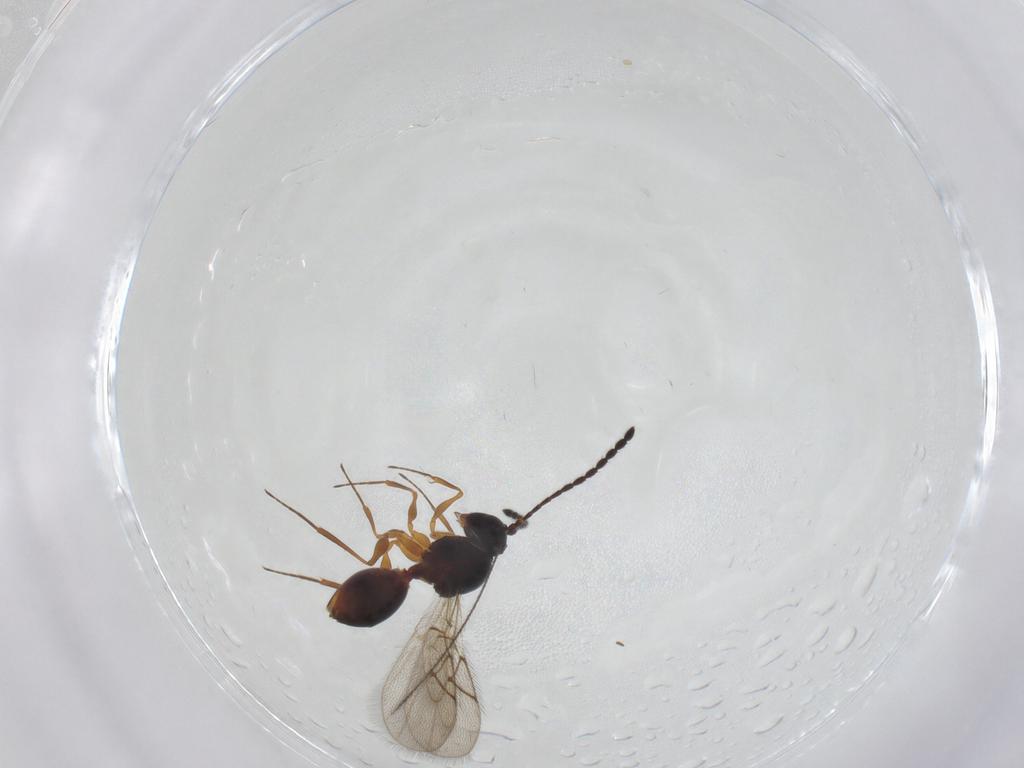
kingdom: Animalia
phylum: Arthropoda
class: Insecta
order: Hymenoptera
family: Figitidae
